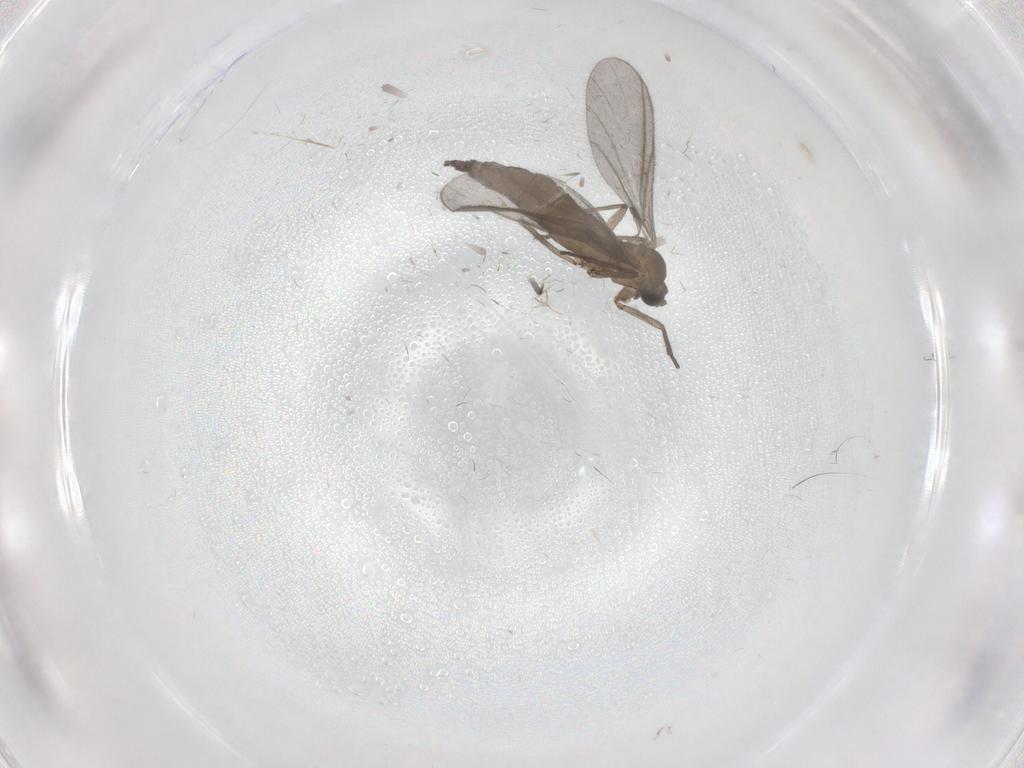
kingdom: Animalia
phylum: Arthropoda
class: Insecta
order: Diptera
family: Sciaridae
